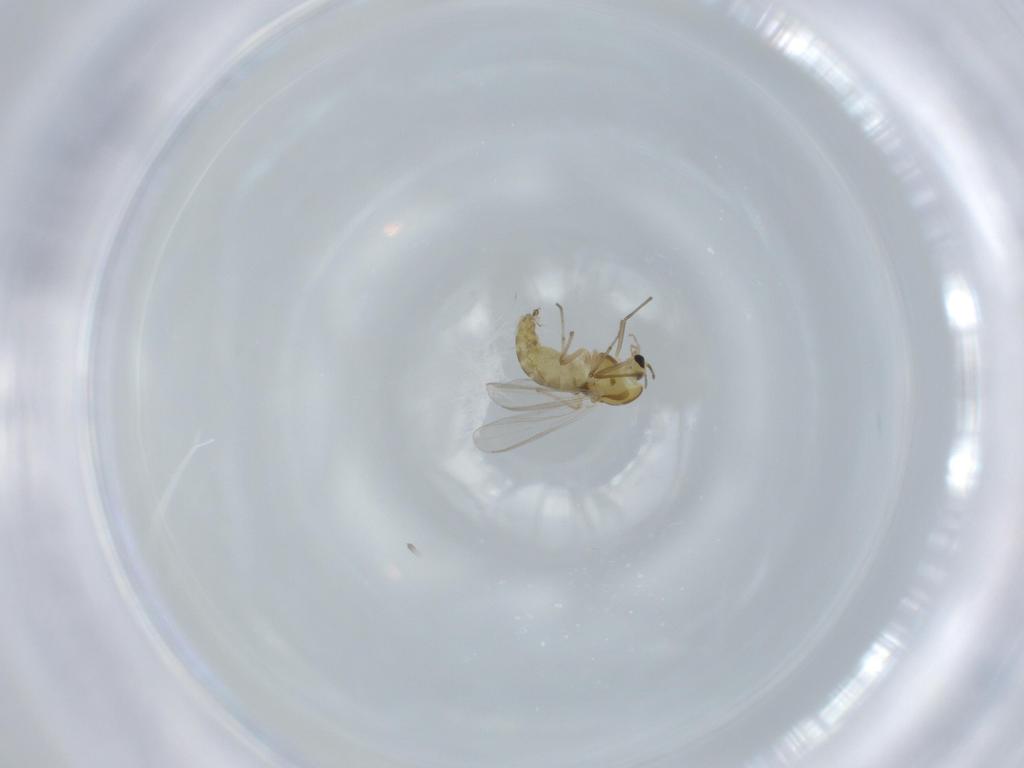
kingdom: Animalia
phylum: Arthropoda
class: Insecta
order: Diptera
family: Chironomidae
